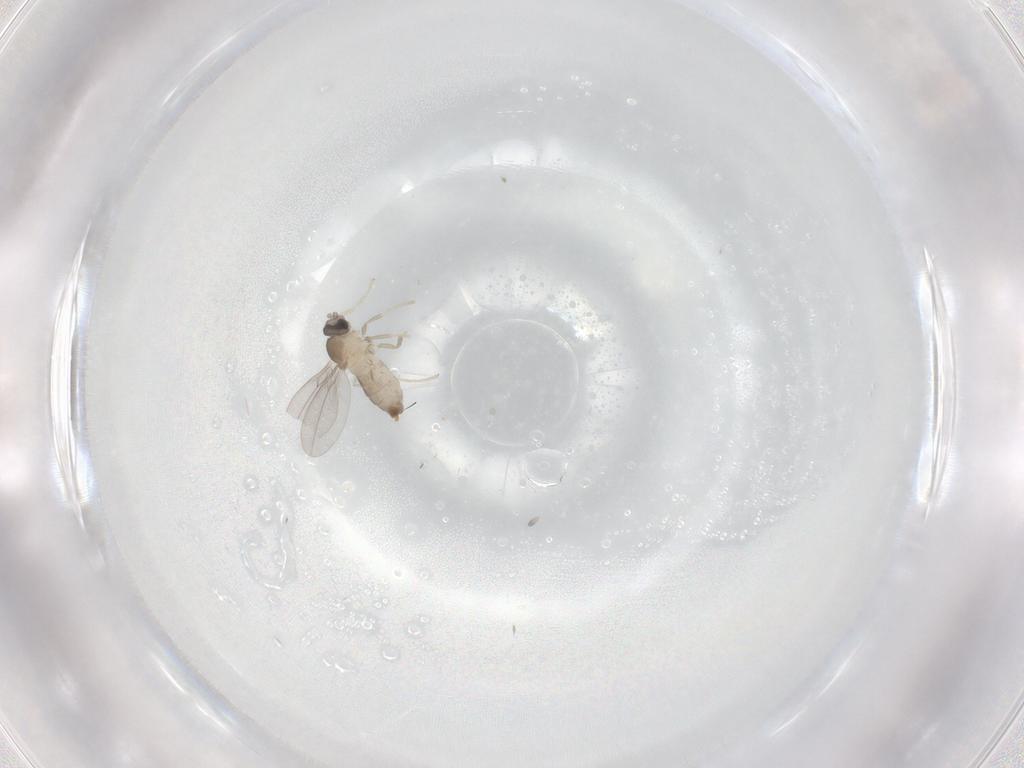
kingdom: Animalia
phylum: Arthropoda
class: Insecta
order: Diptera
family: Cecidomyiidae
